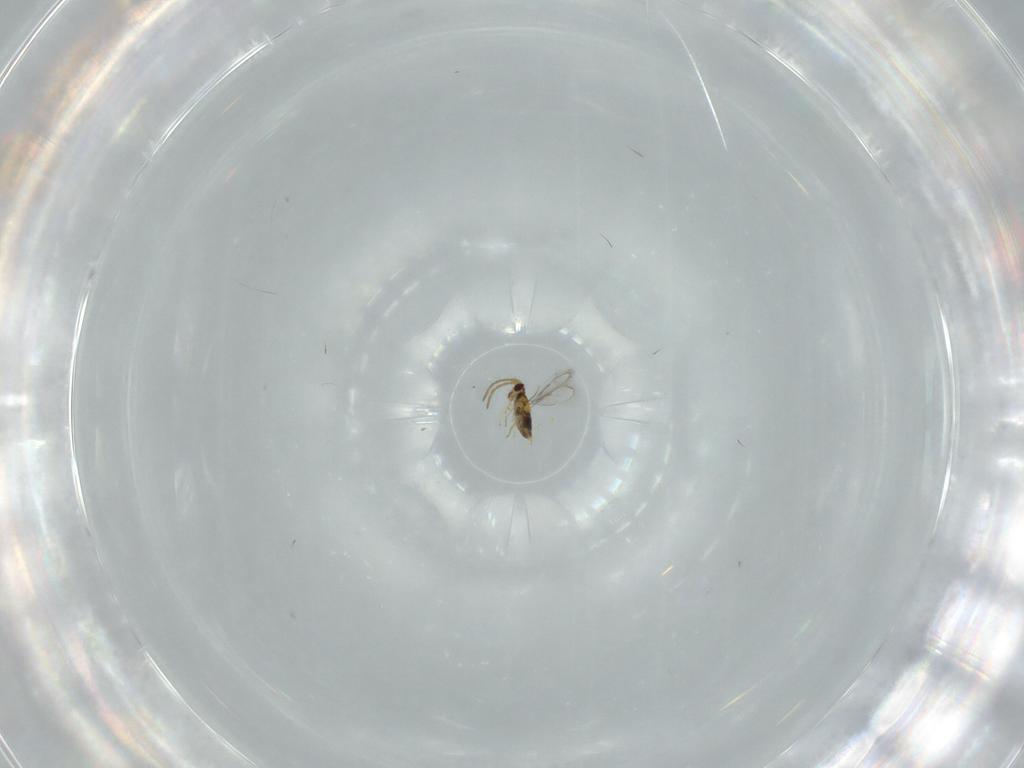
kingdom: Animalia
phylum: Arthropoda
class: Insecta
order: Hymenoptera
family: Aphelinidae
